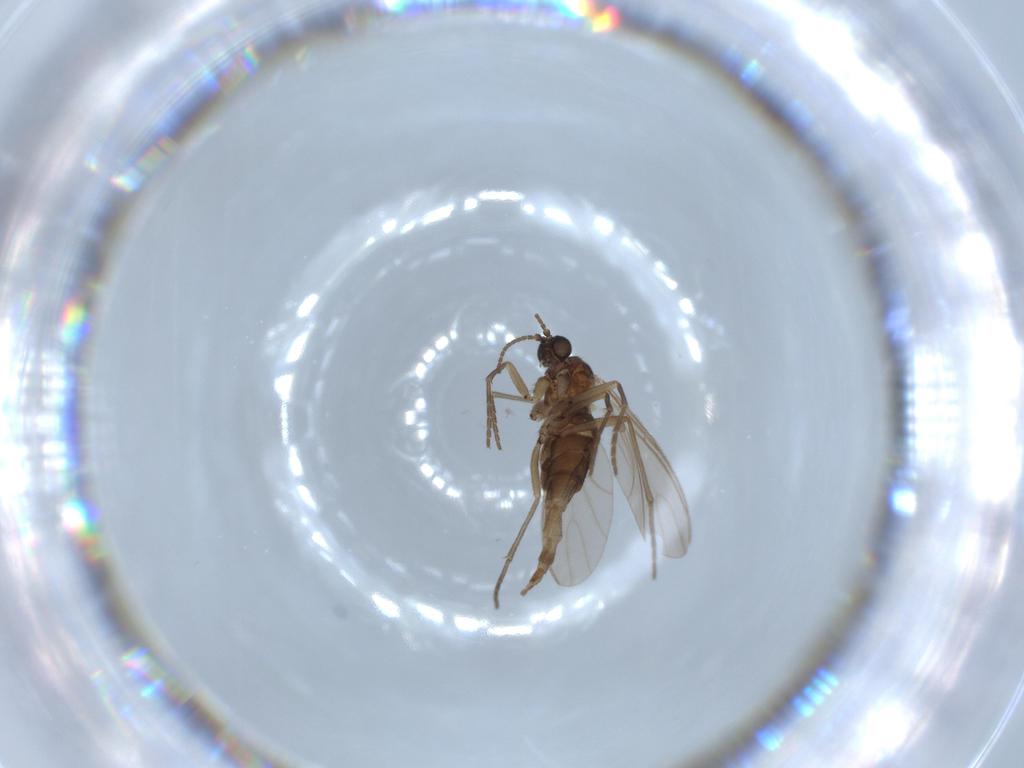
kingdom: Animalia
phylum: Arthropoda
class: Insecta
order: Diptera
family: Sciaridae
